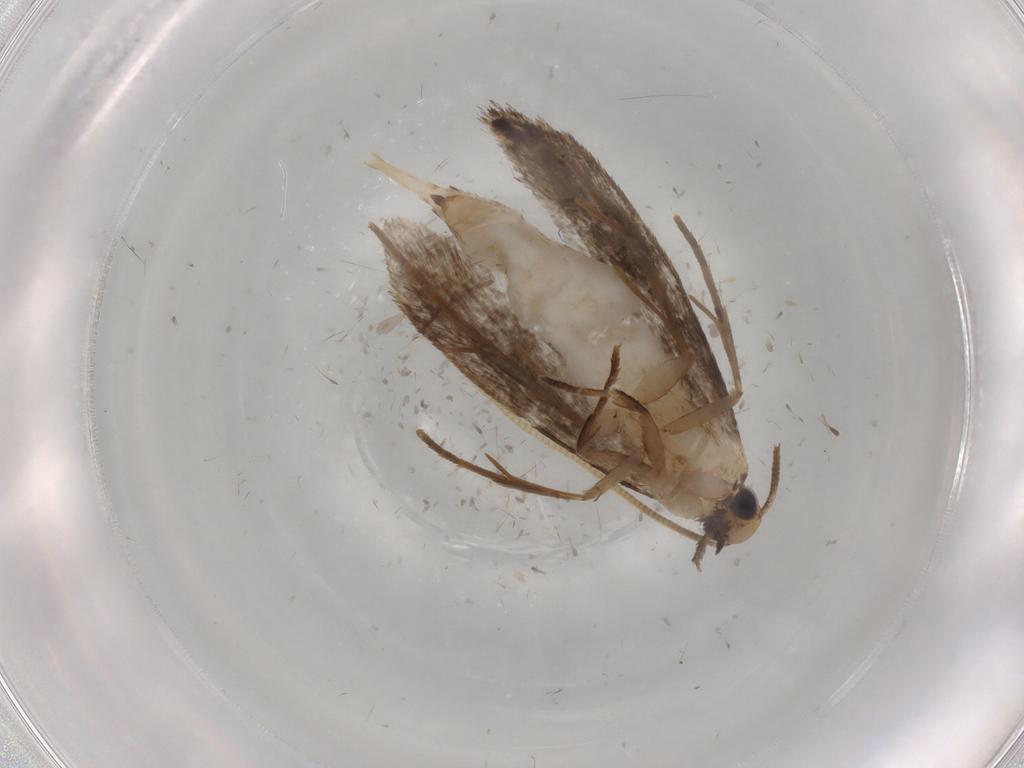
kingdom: Animalia
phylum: Arthropoda
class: Insecta
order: Lepidoptera
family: Tineidae
